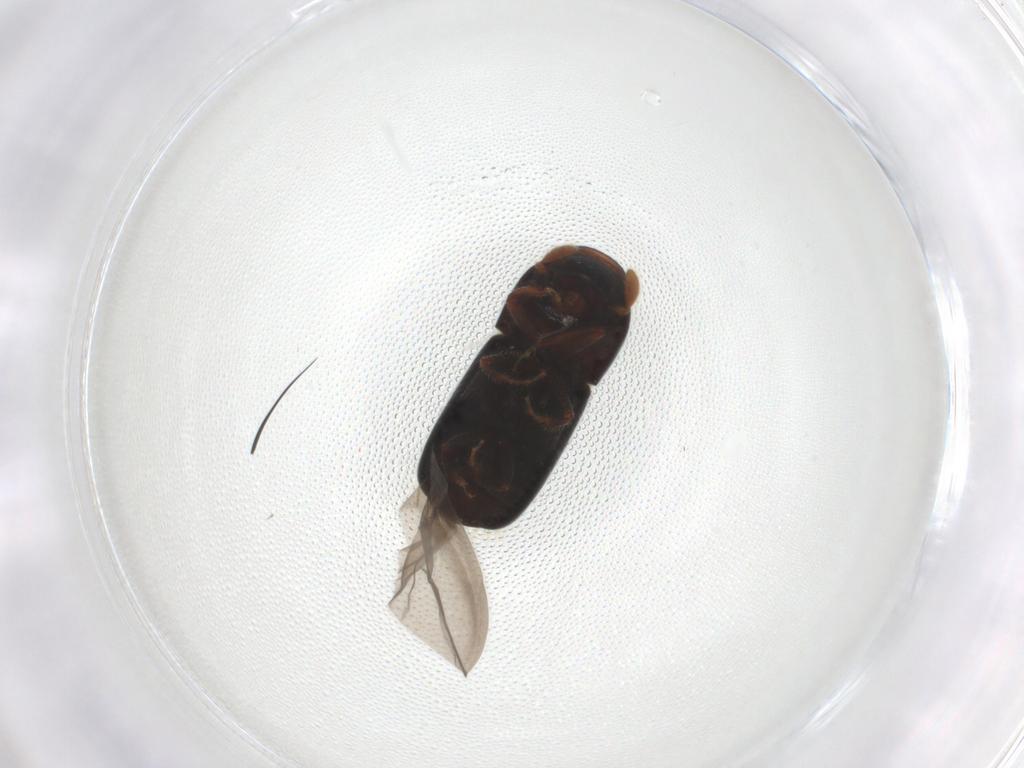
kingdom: Animalia
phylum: Arthropoda
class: Insecta
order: Coleoptera
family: Curculionidae
